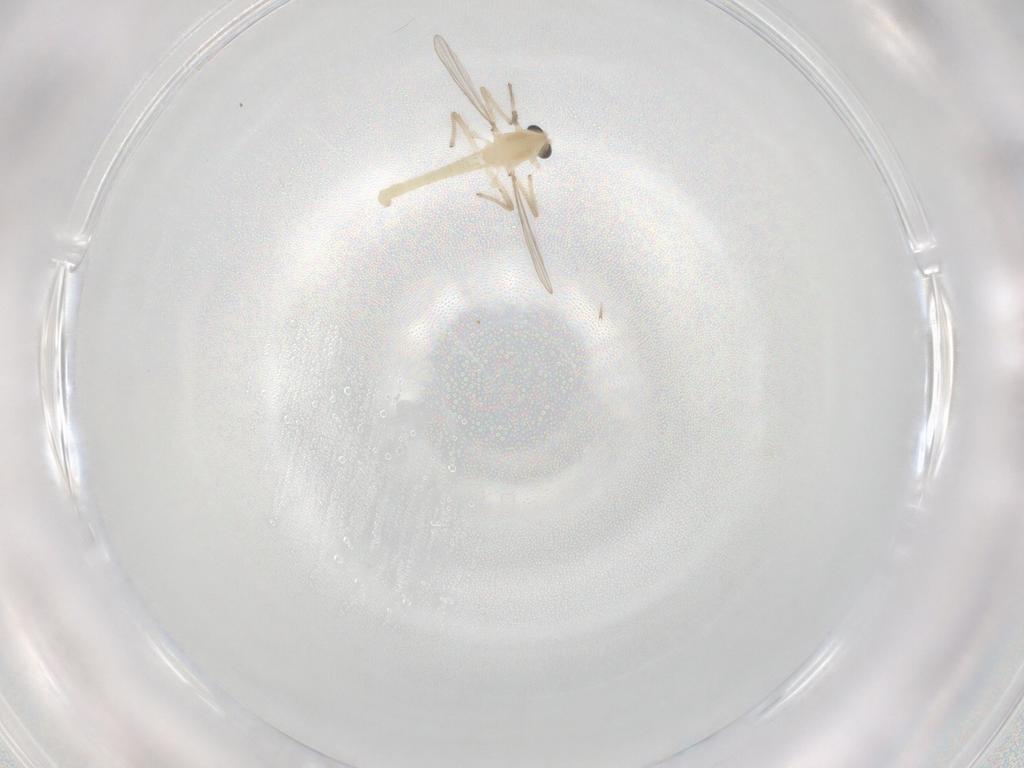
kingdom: Animalia
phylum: Arthropoda
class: Insecta
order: Diptera
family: Chironomidae
